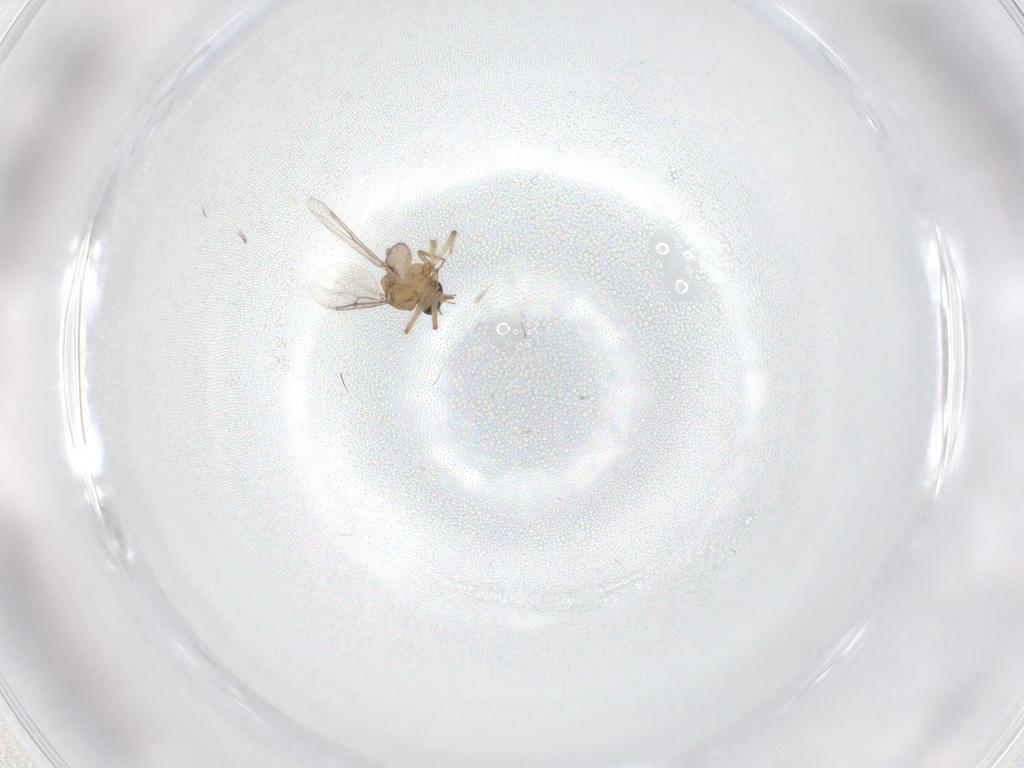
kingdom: Animalia
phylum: Arthropoda
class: Insecta
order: Diptera
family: Ceratopogonidae
